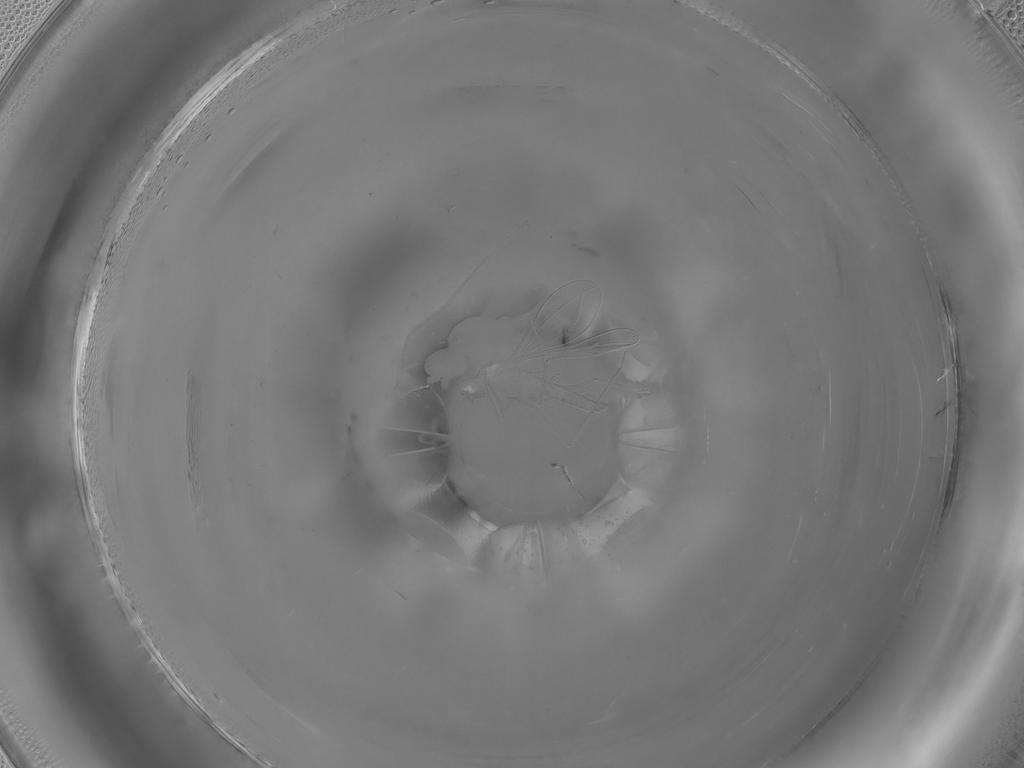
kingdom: Animalia
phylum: Arthropoda
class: Insecta
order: Diptera
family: Cecidomyiidae
